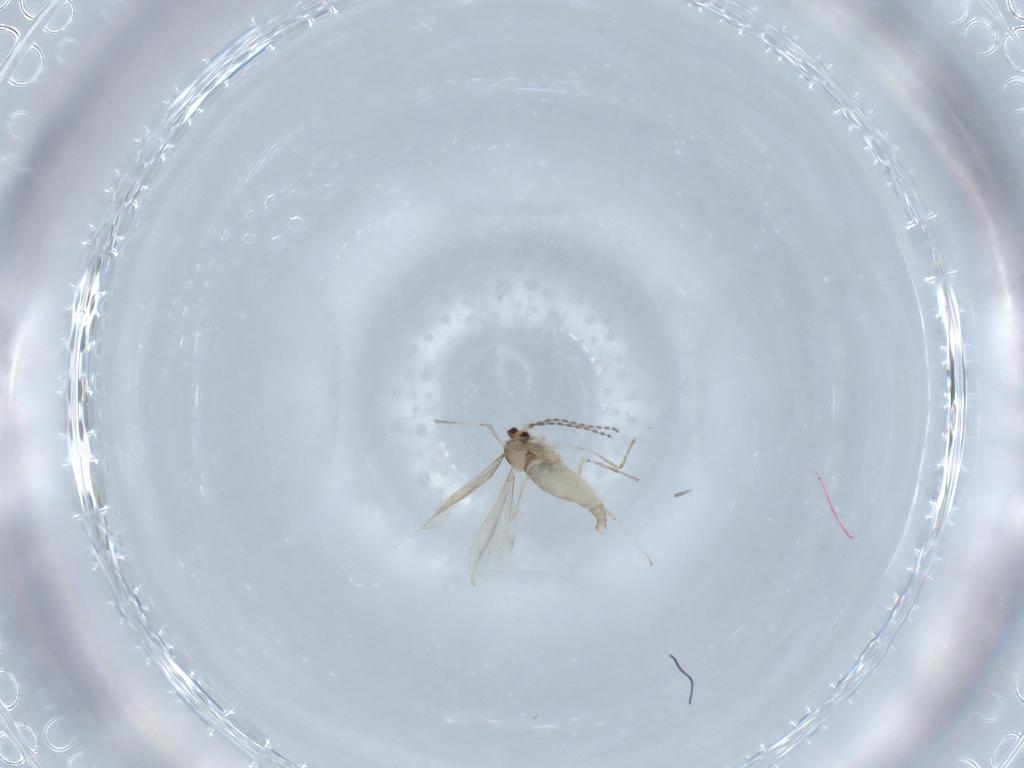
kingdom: Animalia
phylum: Arthropoda
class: Insecta
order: Diptera
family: Cecidomyiidae
